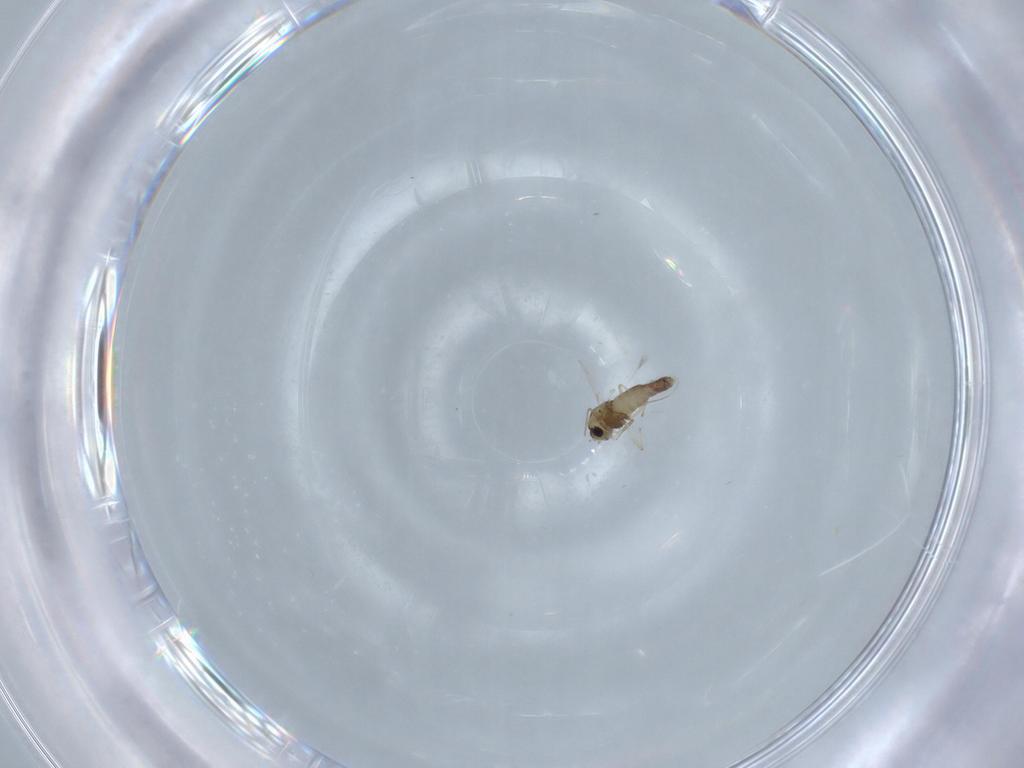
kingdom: Animalia
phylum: Arthropoda
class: Insecta
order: Diptera
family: Chironomidae
